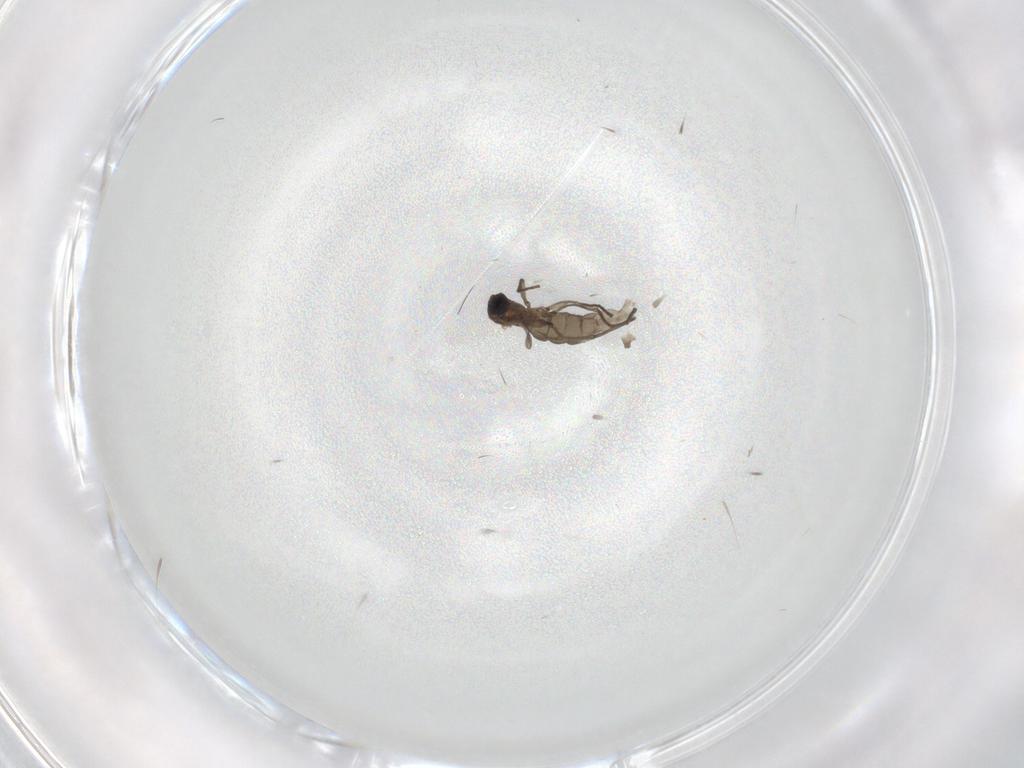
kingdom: Animalia
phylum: Arthropoda
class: Insecta
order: Diptera
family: Sciaridae
